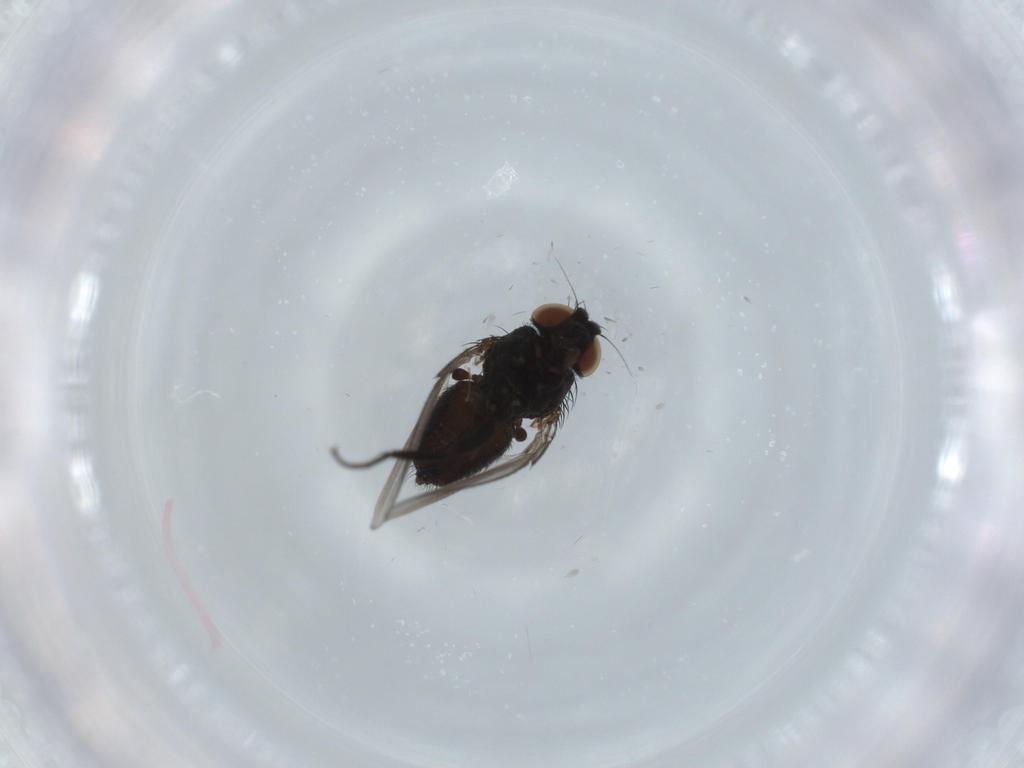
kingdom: Animalia
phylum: Arthropoda
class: Insecta
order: Diptera
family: Milichiidae
